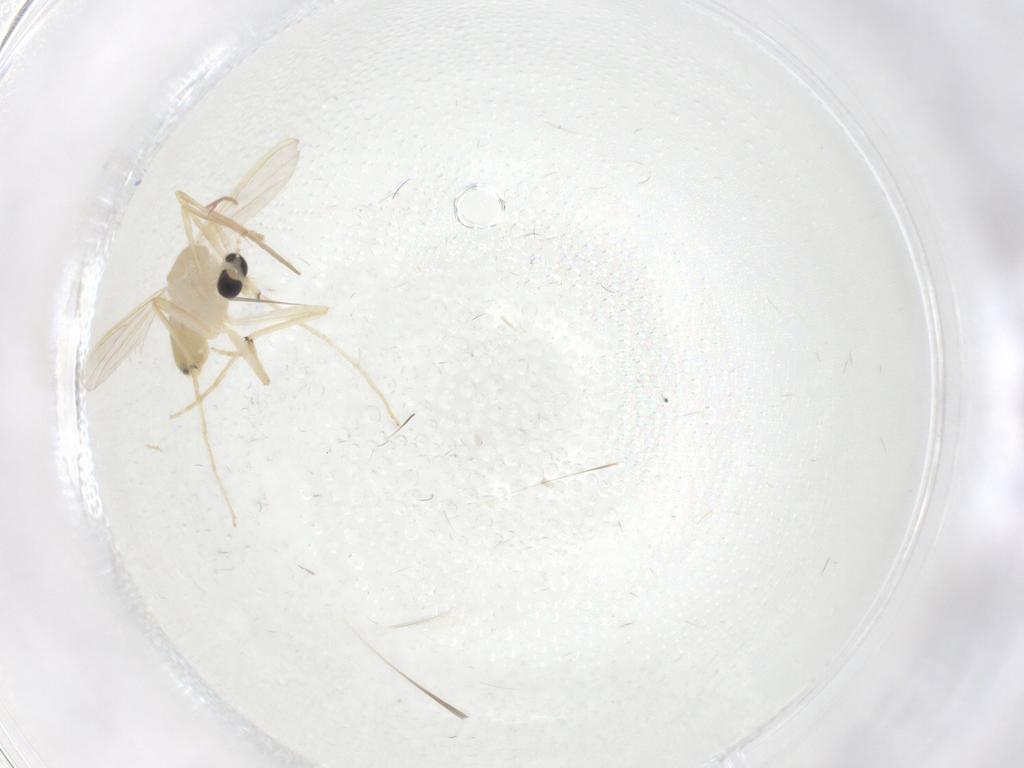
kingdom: Animalia
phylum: Arthropoda
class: Insecta
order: Diptera
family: Chironomidae
